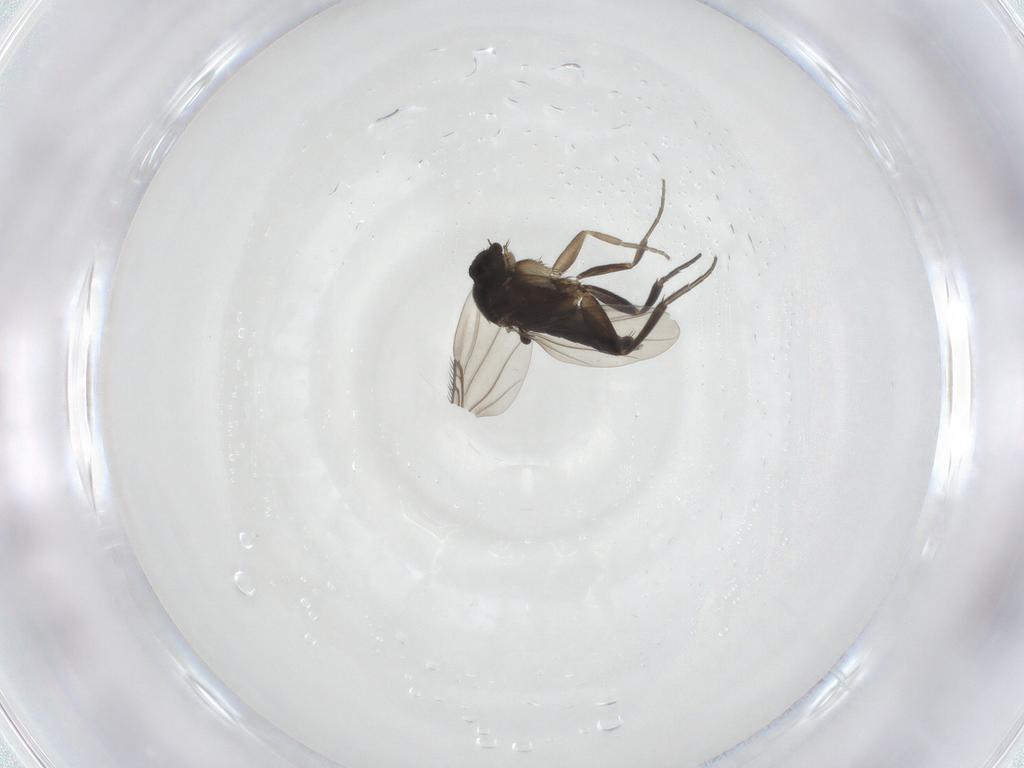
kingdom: Animalia
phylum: Arthropoda
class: Insecta
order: Diptera
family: Phoridae
